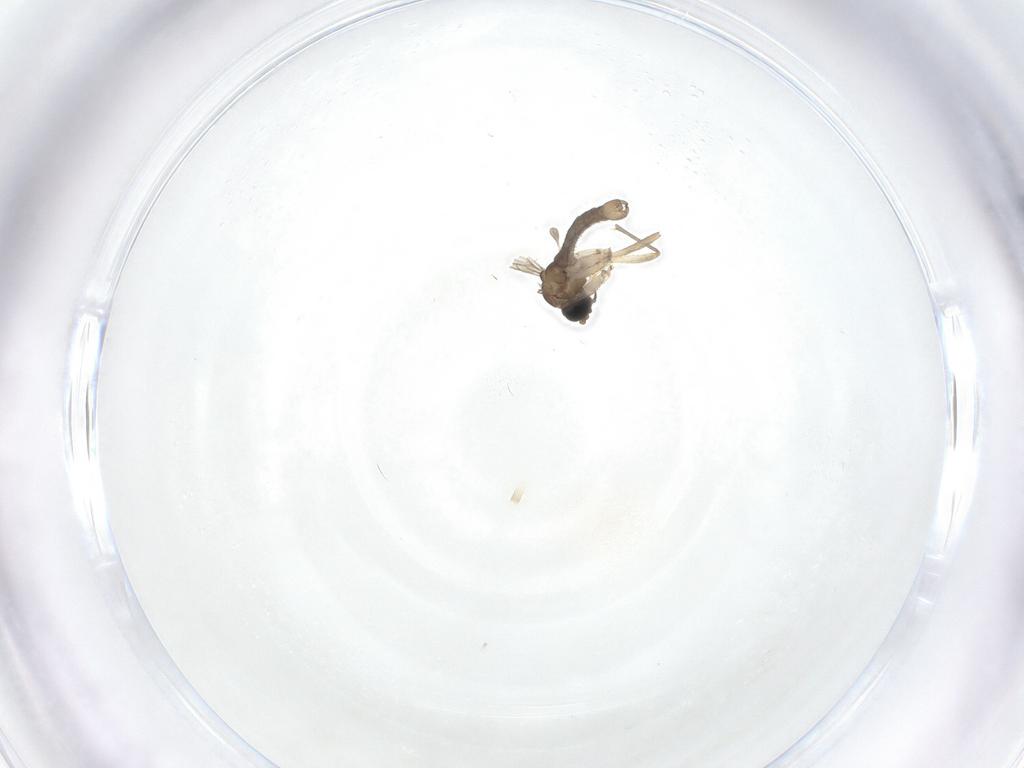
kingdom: Animalia
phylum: Arthropoda
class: Insecta
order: Diptera
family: Sciaridae
